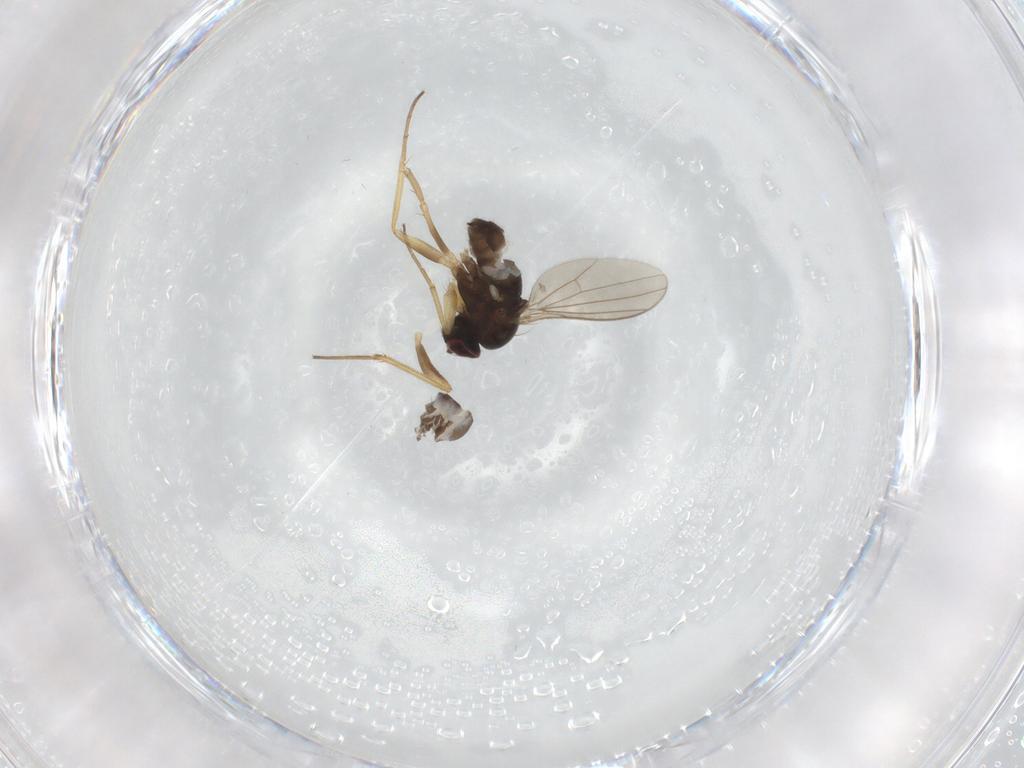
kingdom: Animalia
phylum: Arthropoda
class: Insecta
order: Diptera
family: Dolichopodidae
